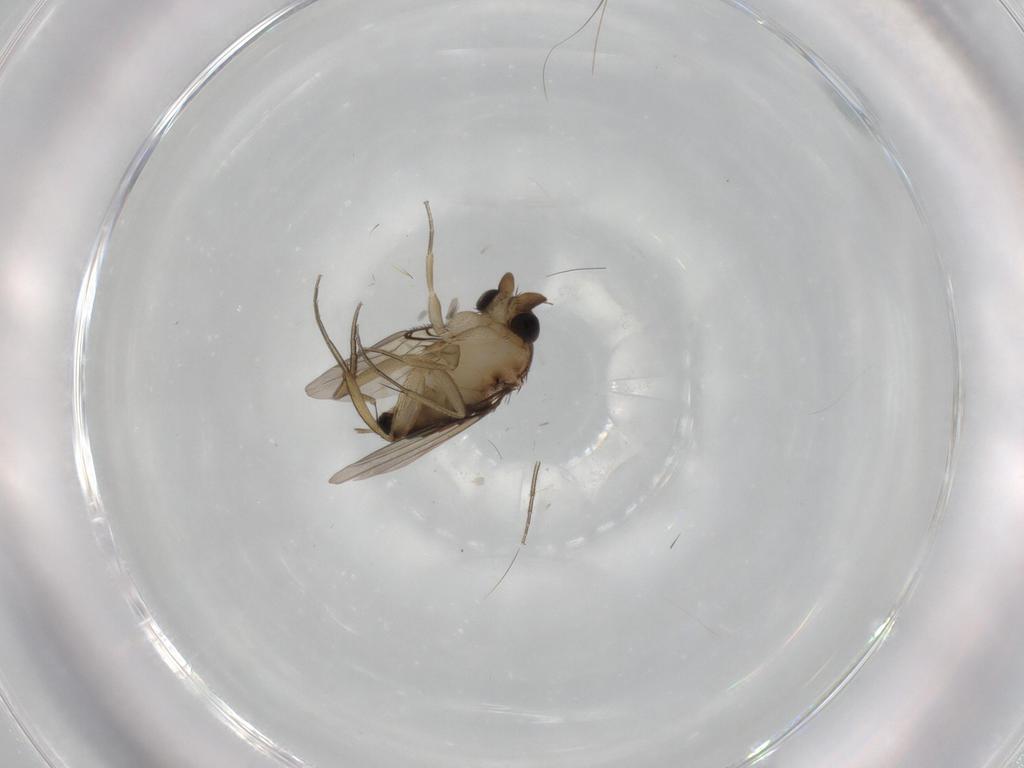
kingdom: Animalia
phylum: Arthropoda
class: Insecta
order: Diptera
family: Phoridae
